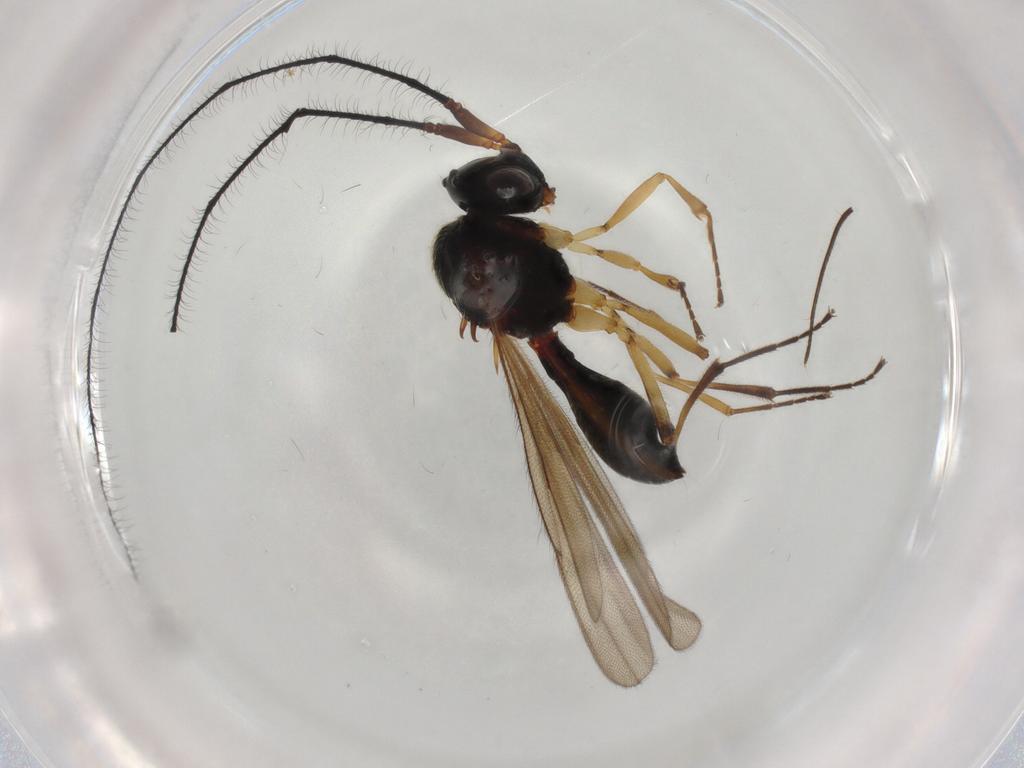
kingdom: Animalia
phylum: Arthropoda
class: Insecta
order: Hymenoptera
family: Scelionidae
